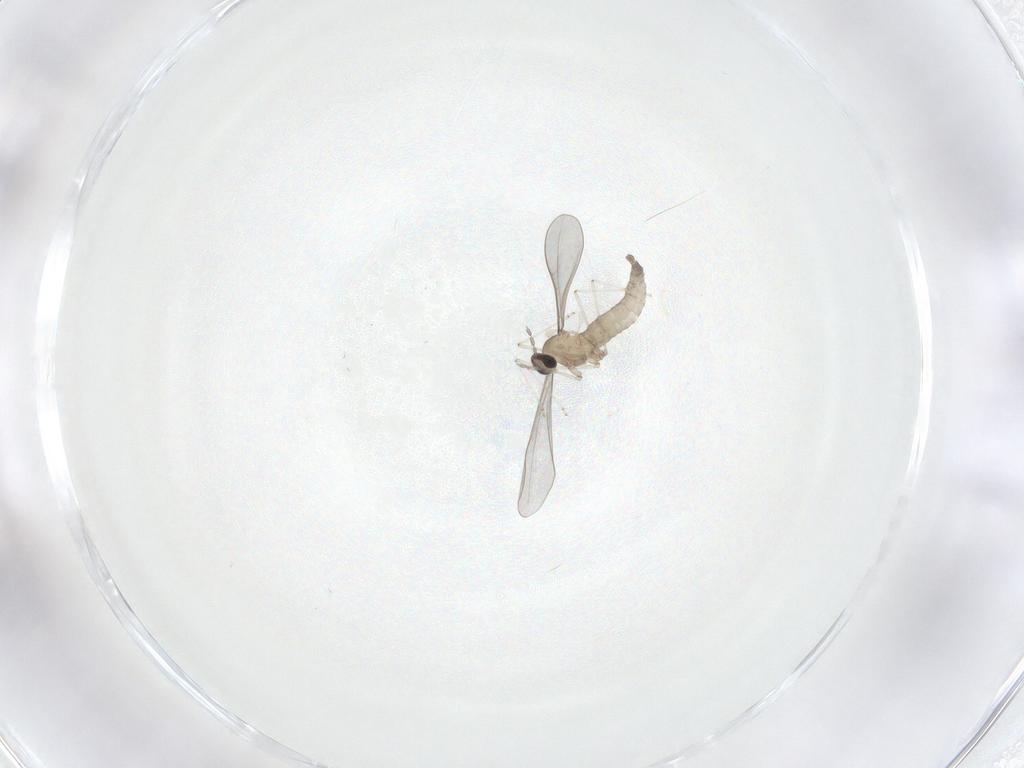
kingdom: Animalia
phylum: Arthropoda
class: Insecta
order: Diptera
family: Cecidomyiidae
